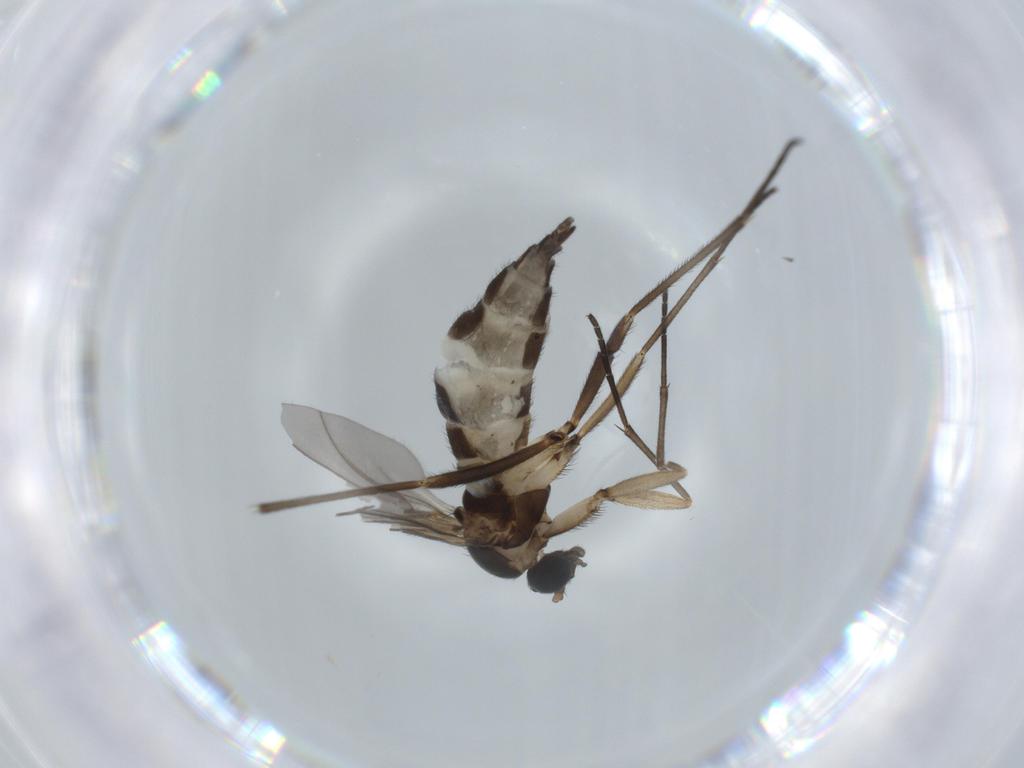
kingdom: Animalia
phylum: Arthropoda
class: Insecta
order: Diptera
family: Sciaridae
